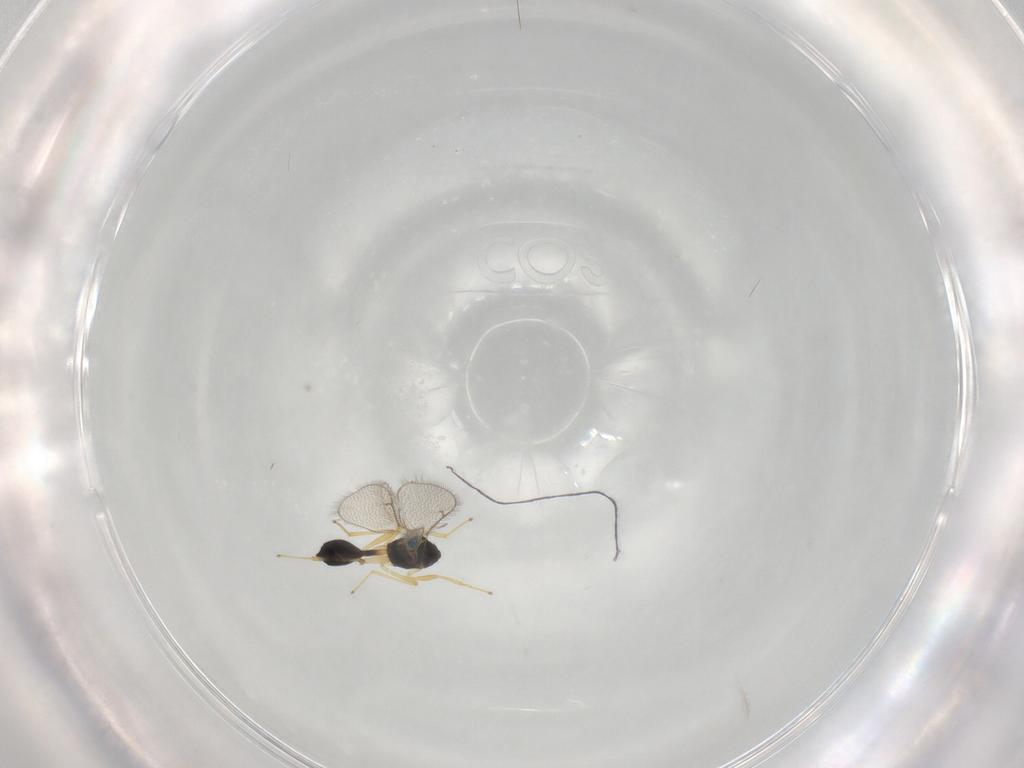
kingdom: Animalia
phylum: Arthropoda
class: Insecta
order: Hymenoptera
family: Diparidae
